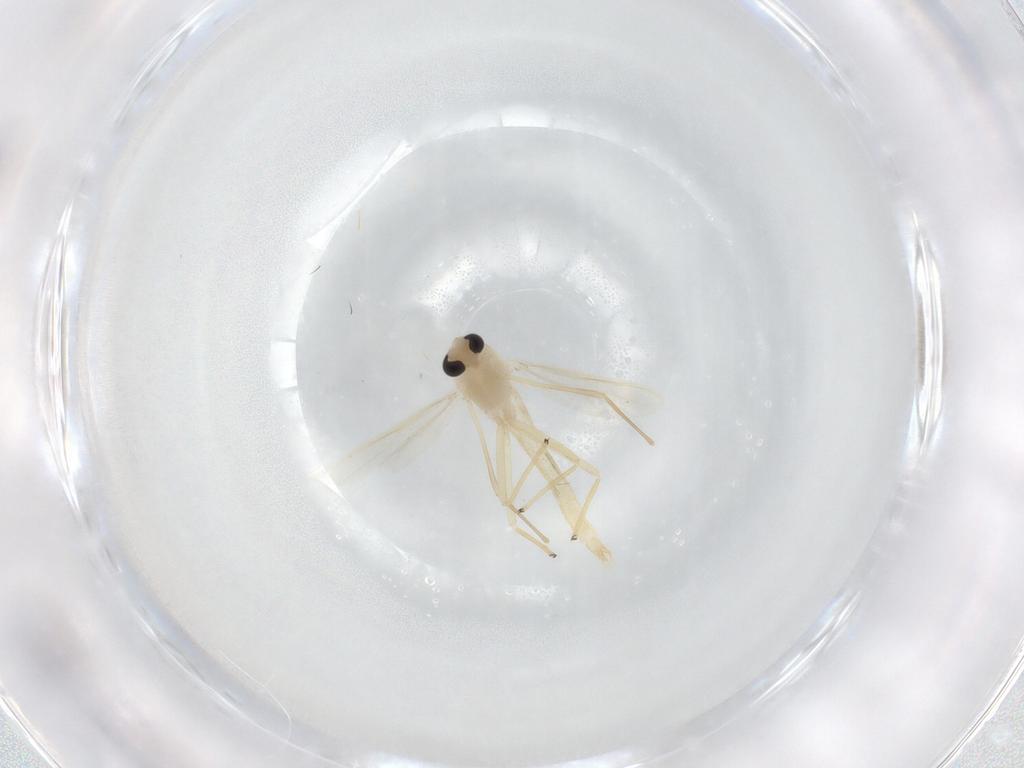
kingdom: Animalia
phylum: Arthropoda
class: Insecta
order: Diptera
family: Chironomidae
